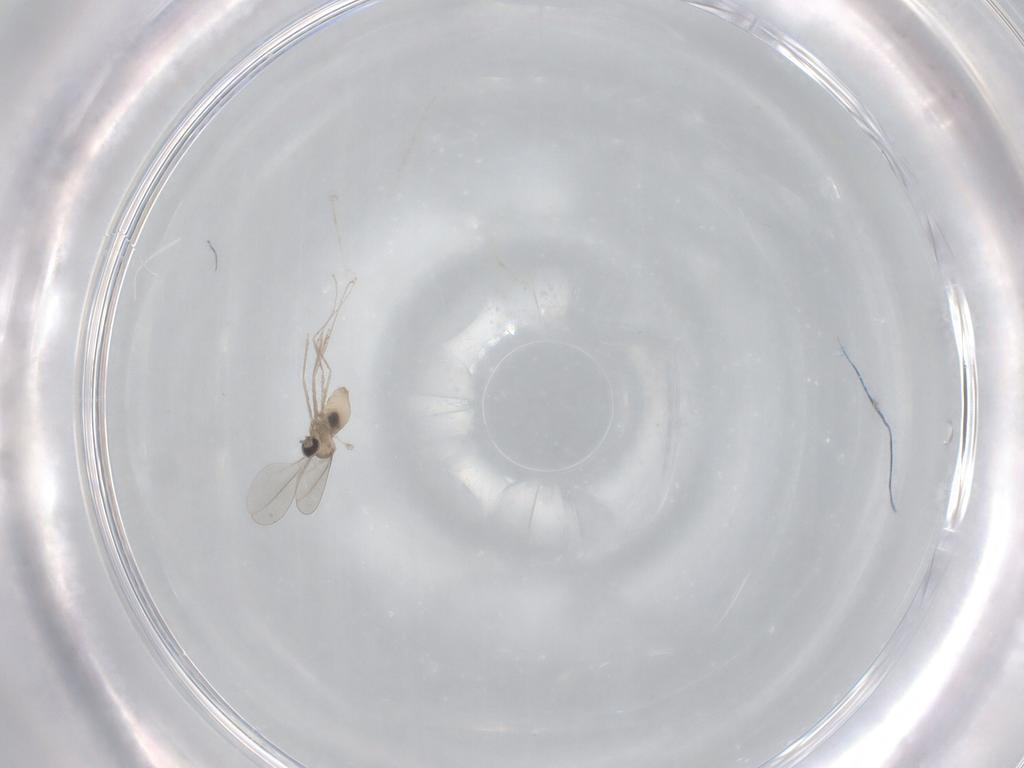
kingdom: Animalia
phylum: Arthropoda
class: Insecta
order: Diptera
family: Cecidomyiidae
